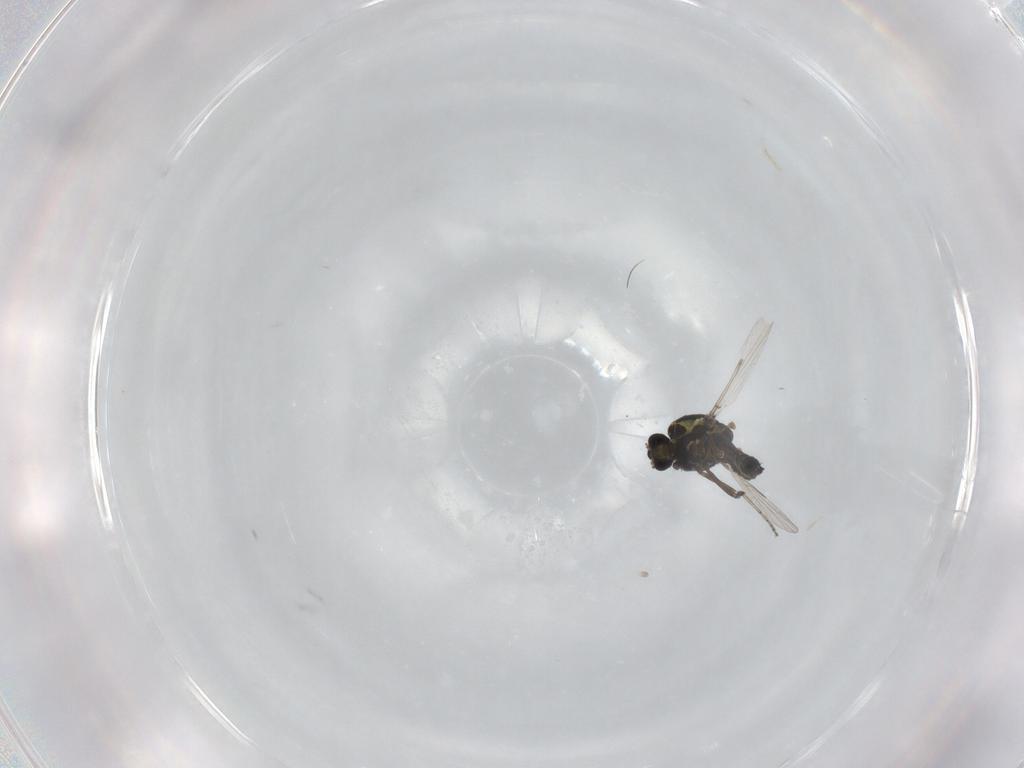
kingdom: Animalia
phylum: Arthropoda
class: Insecta
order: Diptera
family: Ceratopogonidae
